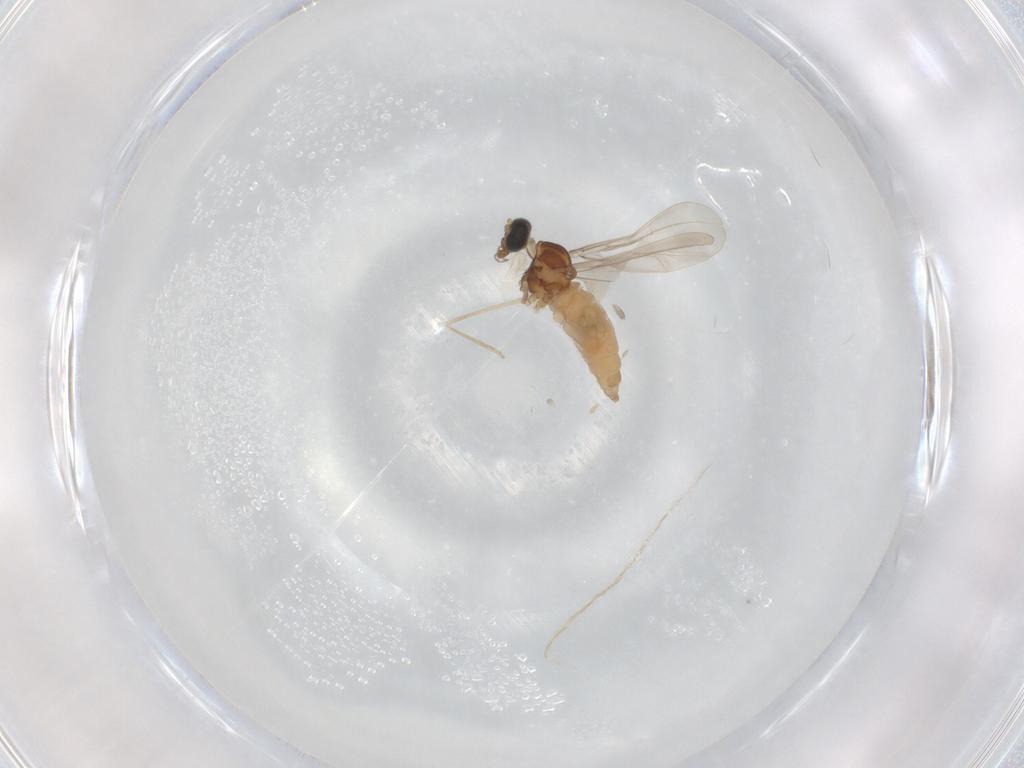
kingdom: Animalia
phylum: Arthropoda
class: Insecta
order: Diptera
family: Cecidomyiidae
